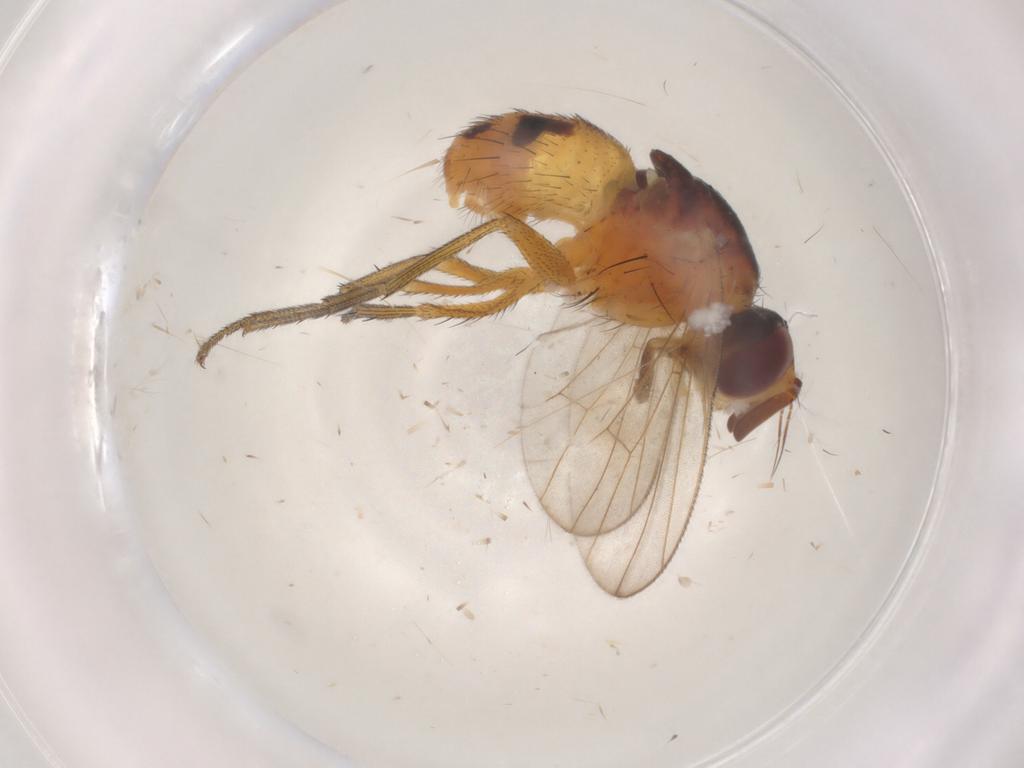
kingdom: Animalia
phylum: Arthropoda
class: Insecta
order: Diptera
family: Muscidae
